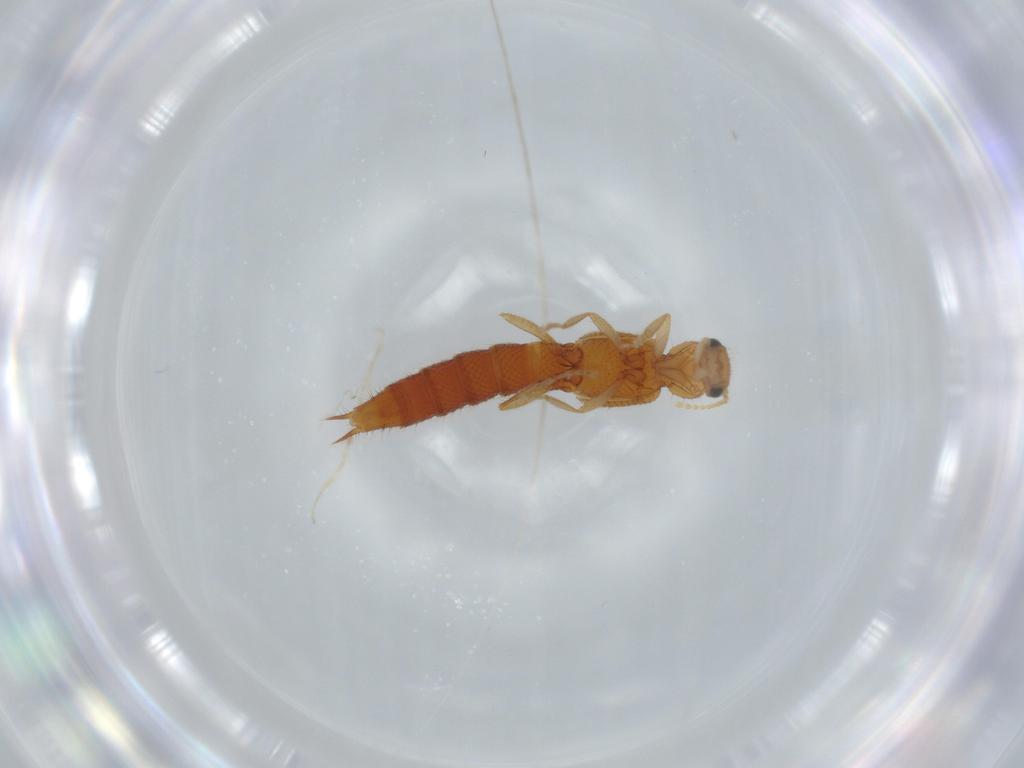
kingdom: Animalia
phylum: Arthropoda
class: Insecta
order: Coleoptera
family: Staphylinidae
